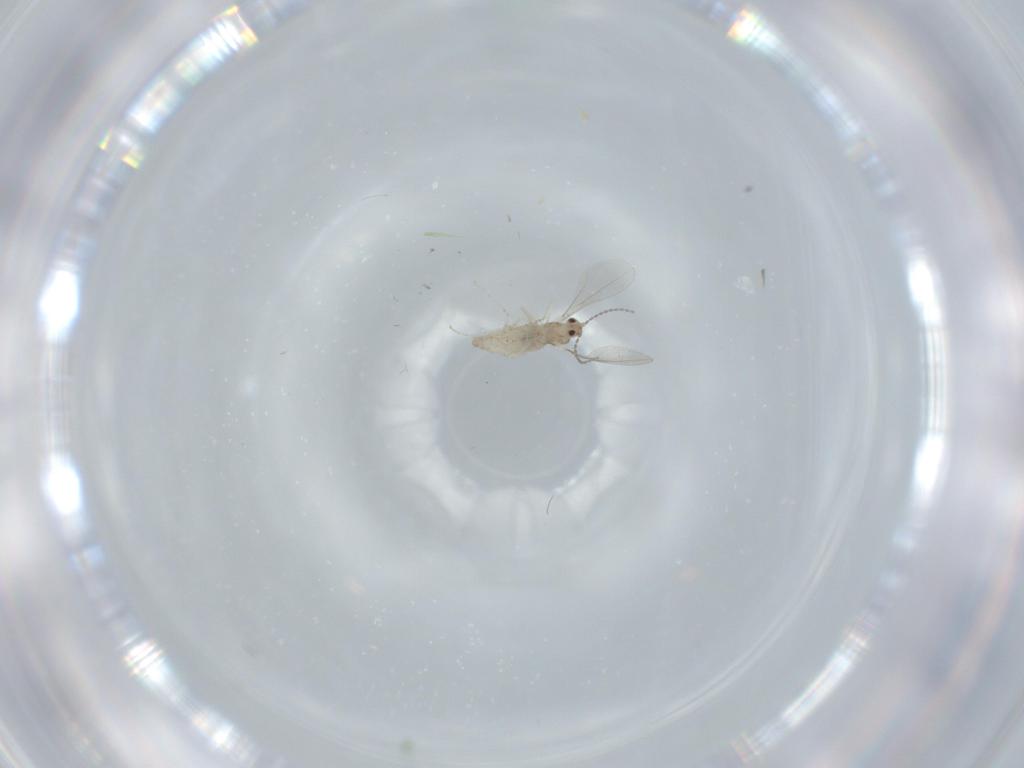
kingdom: Animalia
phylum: Arthropoda
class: Insecta
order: Diptera
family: Cecidomyiidae
